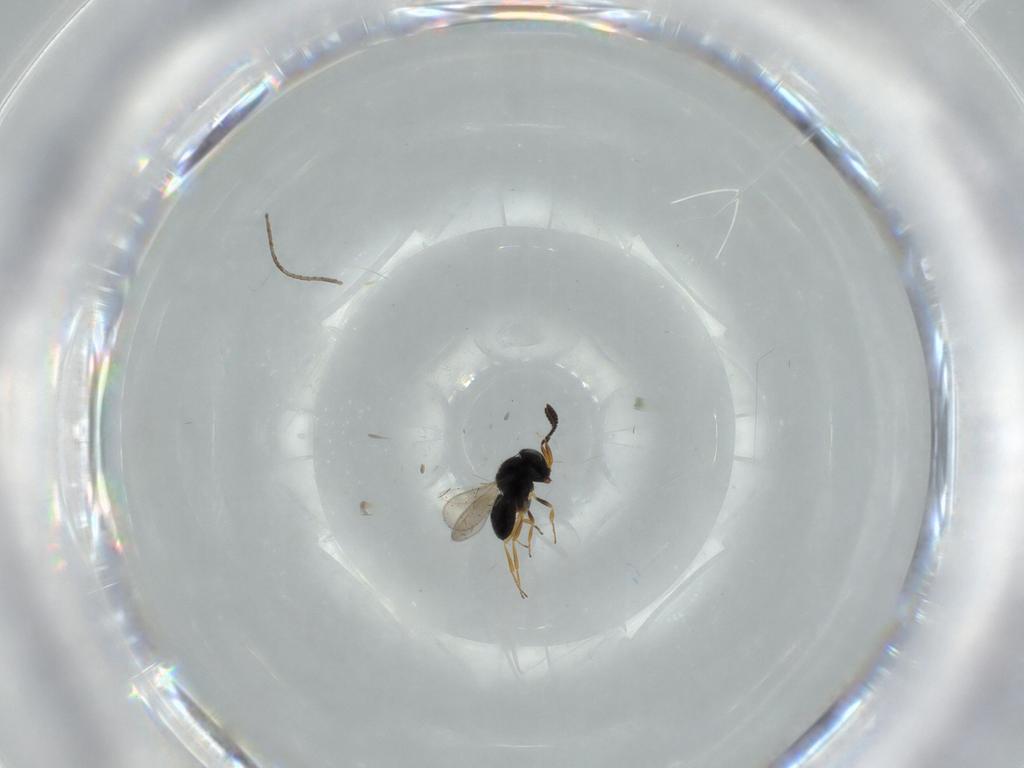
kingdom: Animalia
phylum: Arthropoda
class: Insecta
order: Hymenoptera
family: Scelionidae
